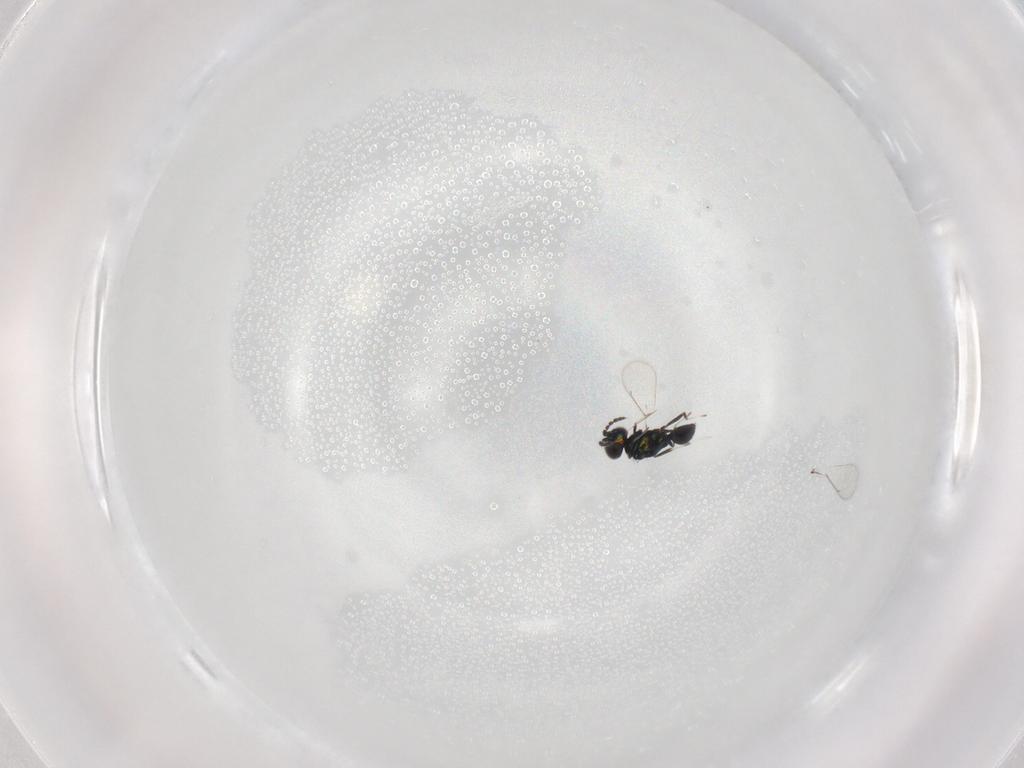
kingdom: Animalia
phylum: Arthropoda
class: Insecta
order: Hymenoptera
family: Eulophidae
